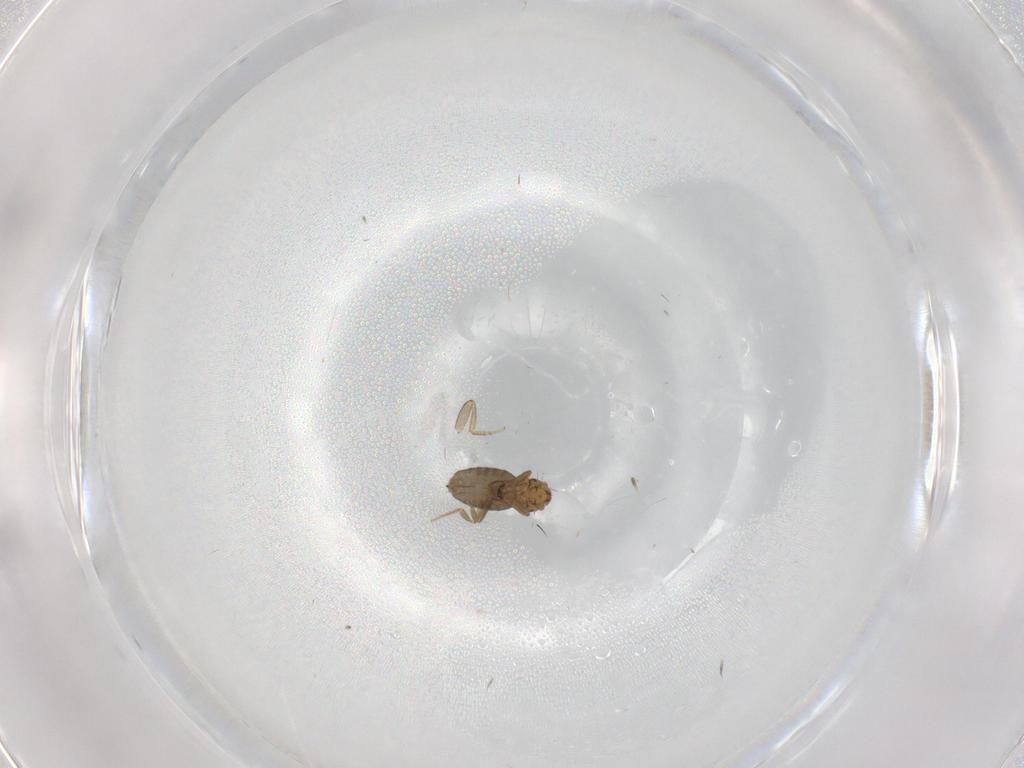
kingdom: Animalia
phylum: Arthropoda
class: Insecta
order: Diptera
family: Phoridae
